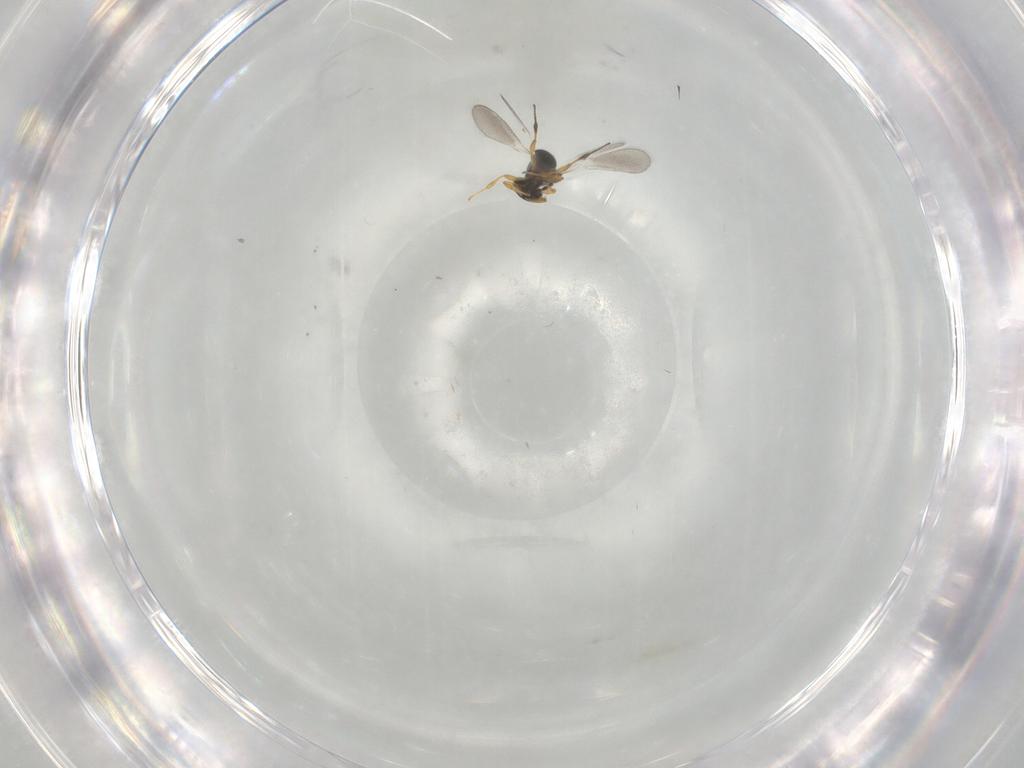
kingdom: Animalia
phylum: Arthropoda
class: Insecta
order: Hymenoptera
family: Platygastridae
